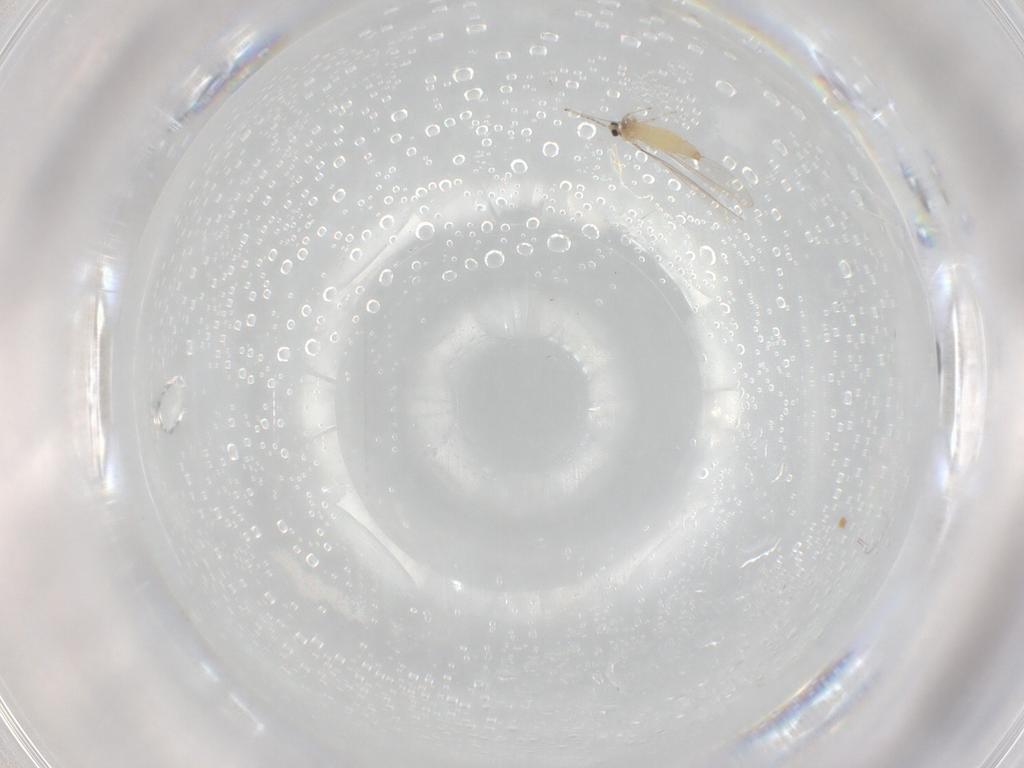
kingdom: Animalia
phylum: Arthropoda
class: Insecta
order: Diptera
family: Cecidomyiidae
